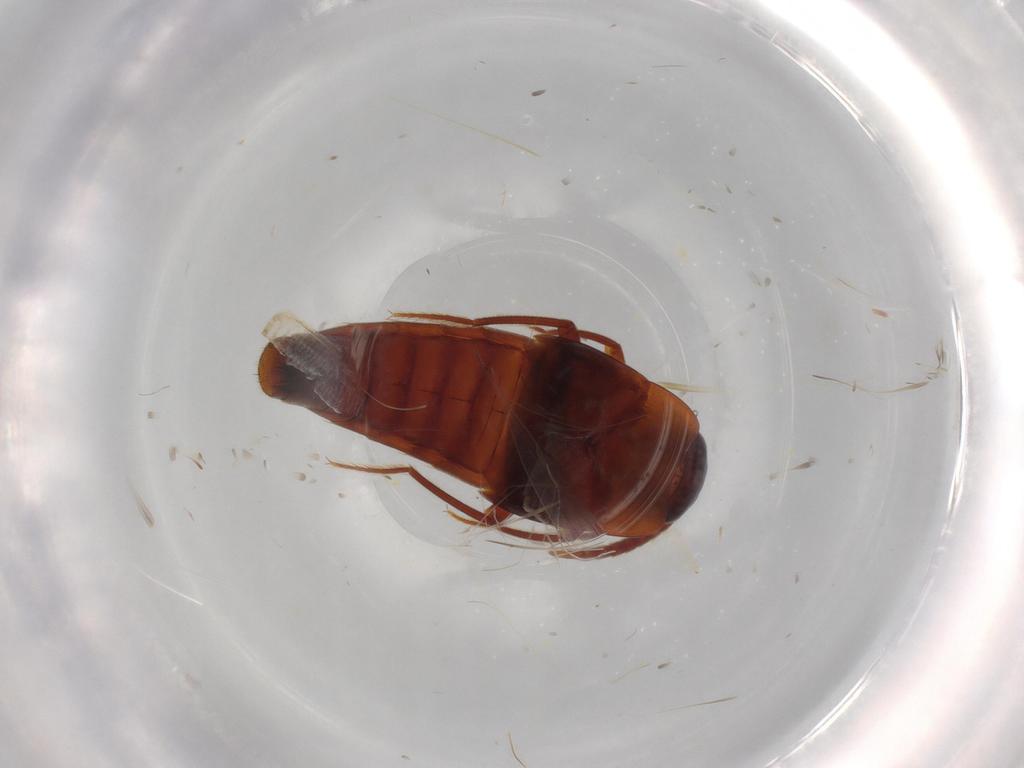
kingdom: Animalia
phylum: Arthropoda
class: Insecta
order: Coleoptera
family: Staphylinidae
